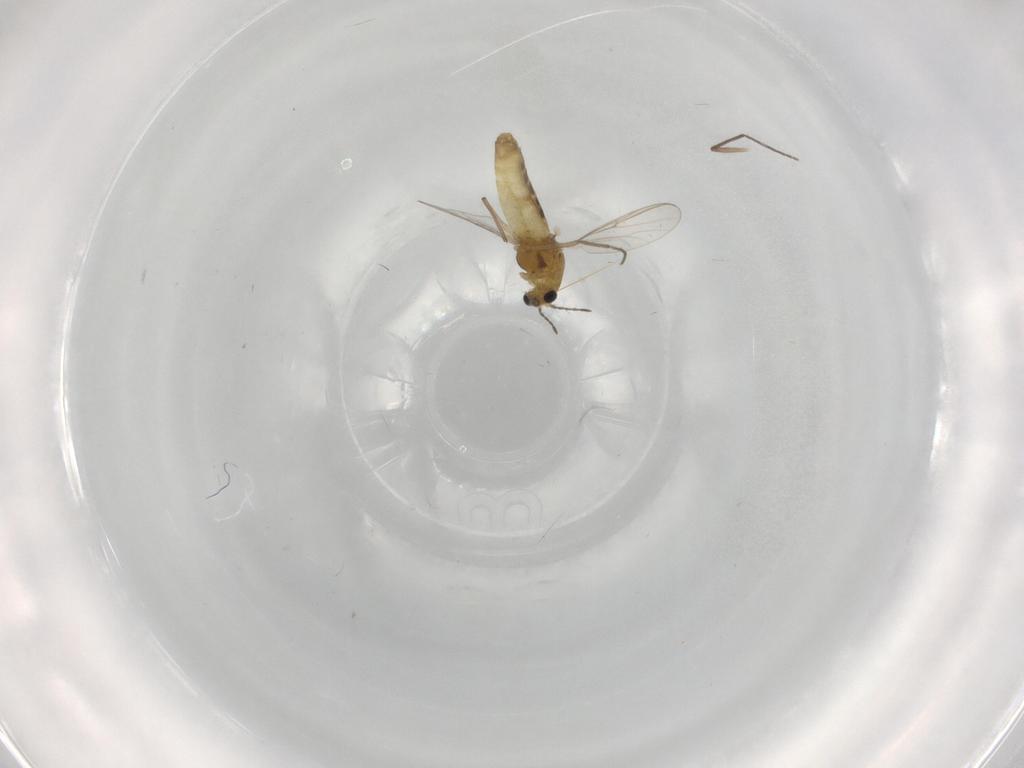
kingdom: Animalia
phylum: Arthropoda
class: Insecta
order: Diptera
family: Chironomidae
